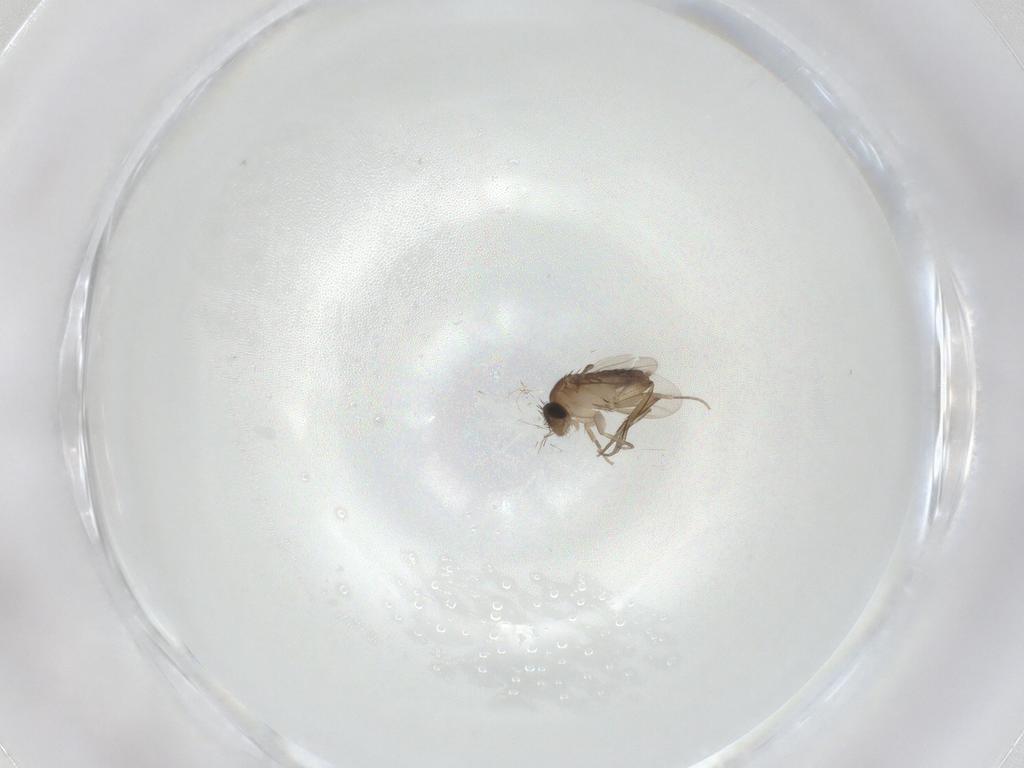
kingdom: Animalia
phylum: Arthropoda
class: Insecta
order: Diptera
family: Phoridae
